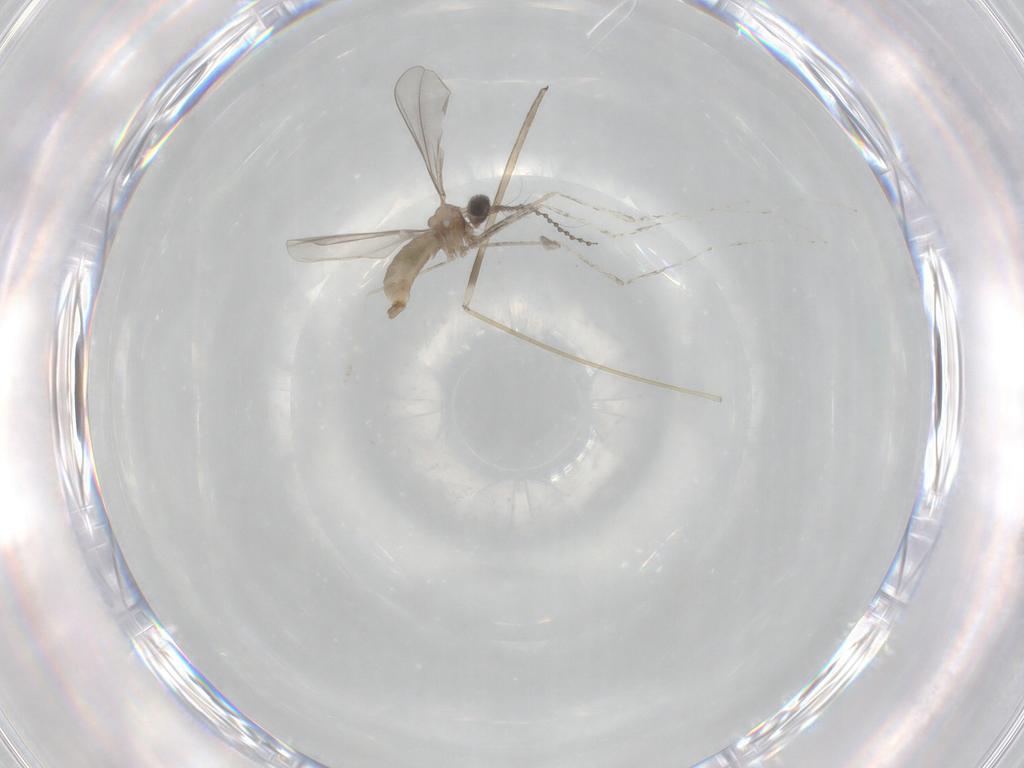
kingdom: Animalia
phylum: Arthropoda
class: Insecta
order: Diptera
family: Cecidomyiidae
